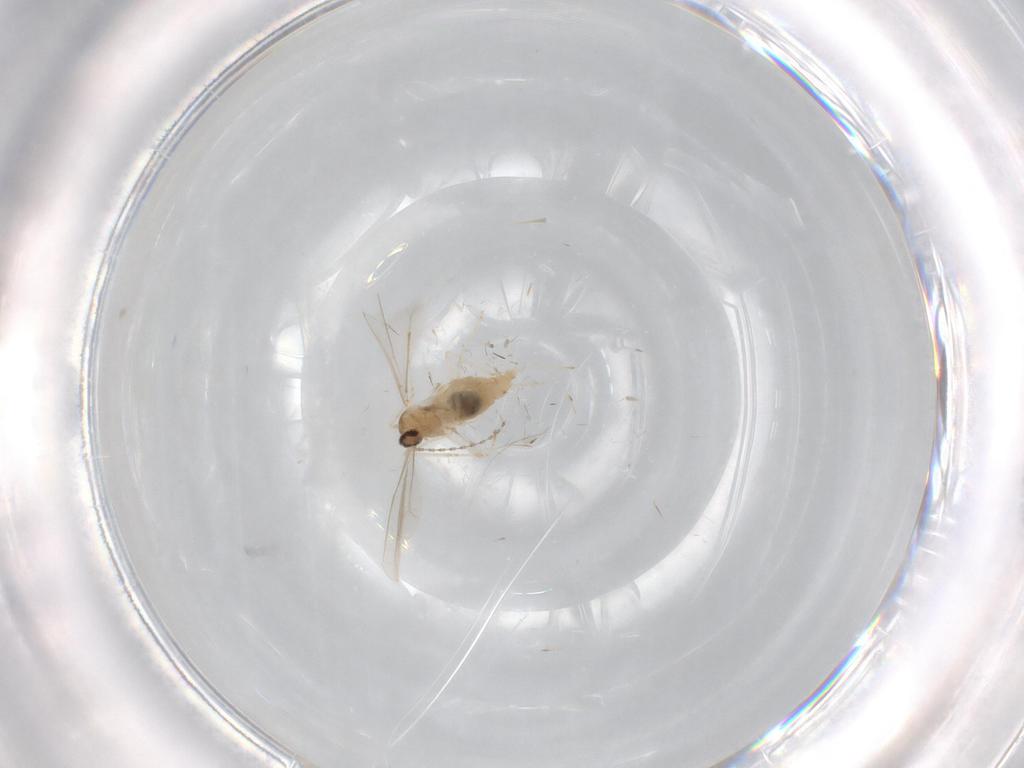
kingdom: Animalia
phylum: Arthropoda
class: Insecta
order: Diptera
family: Cecidomyiidae
